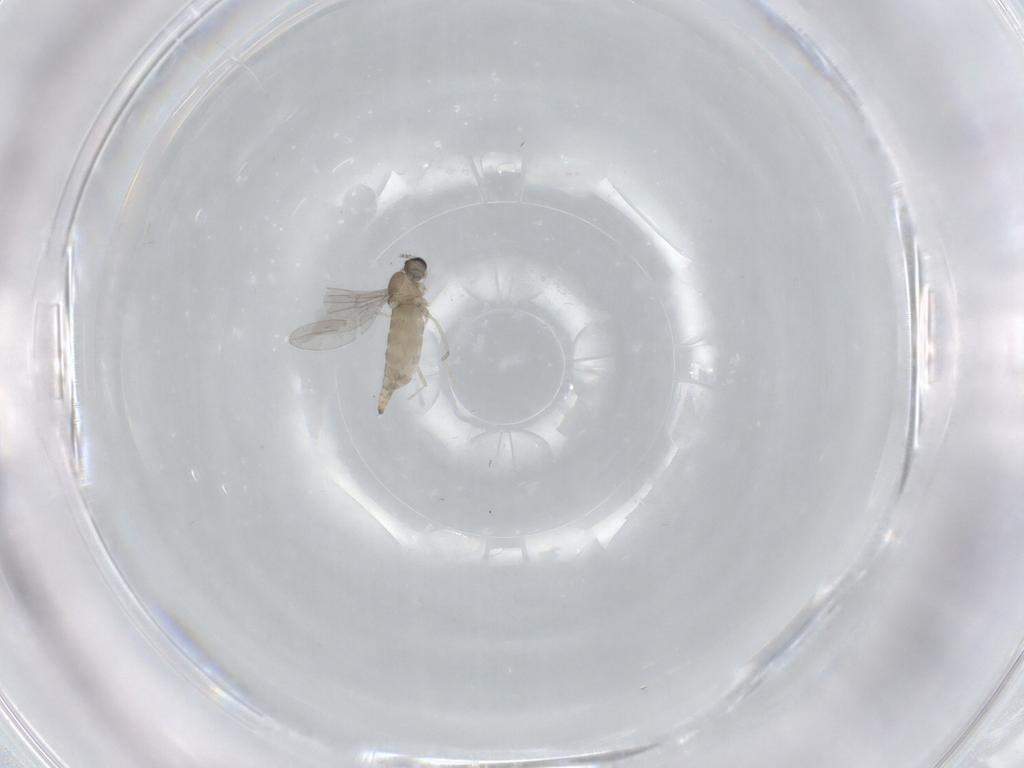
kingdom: Animalia
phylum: Arthropoda
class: Insecta
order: Diptera
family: Cecidomyiidae
